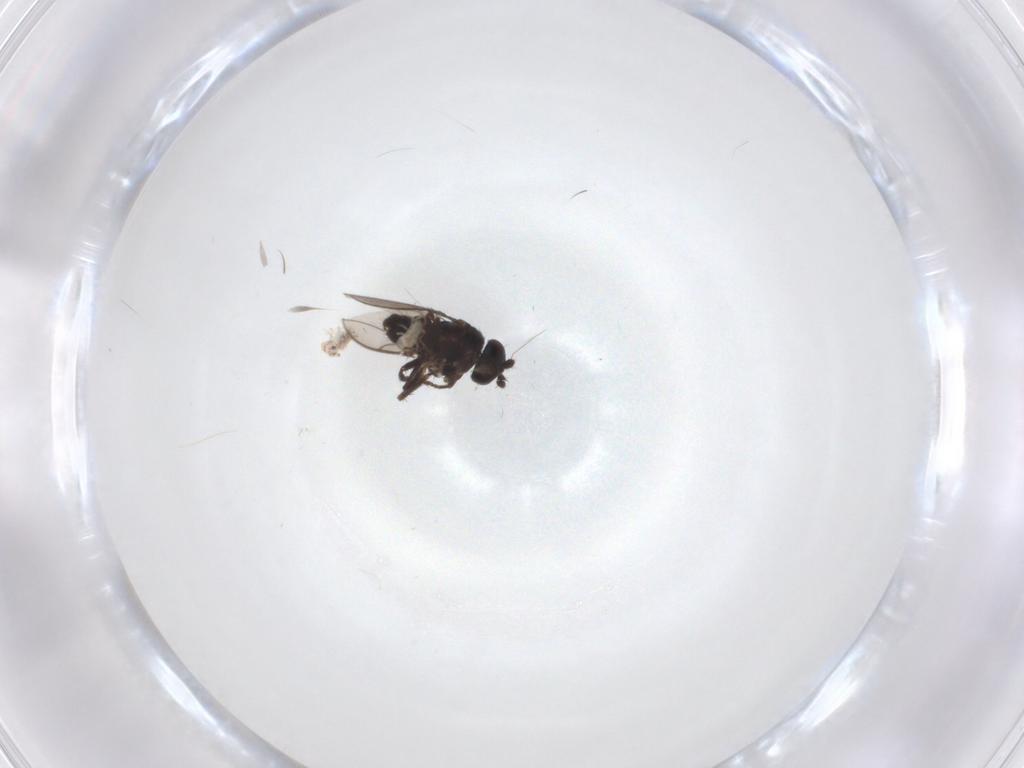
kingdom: Animalia
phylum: Arthropoda
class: Insecta
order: Diptera
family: Sphaeroceridae
